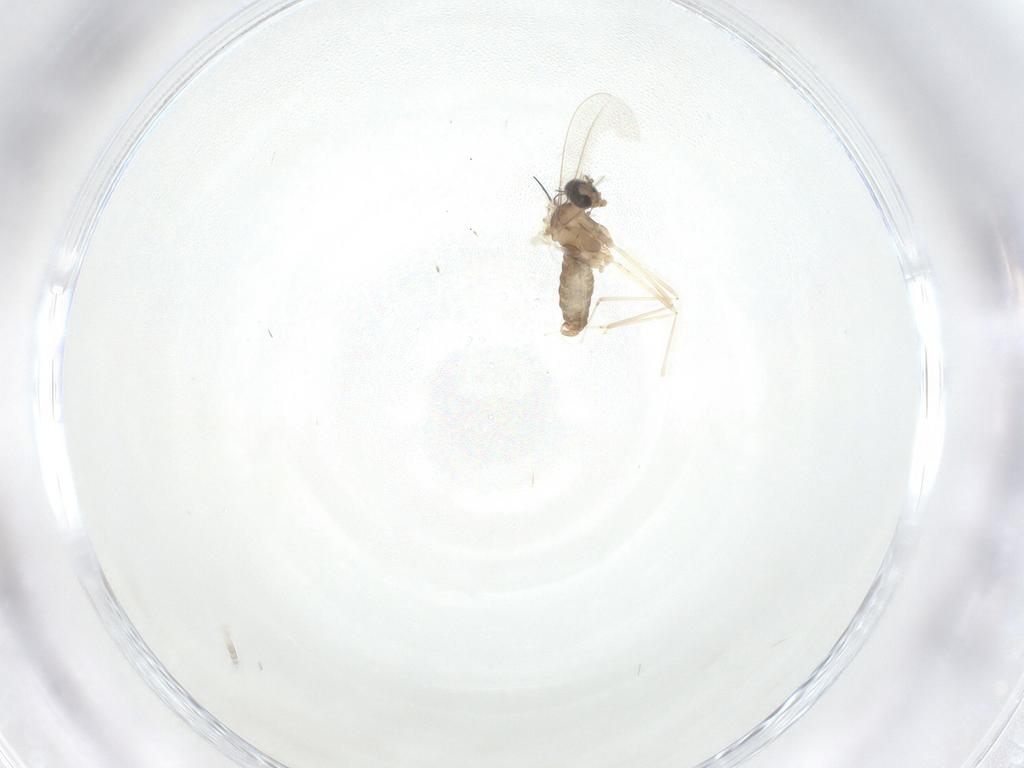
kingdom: Animalia
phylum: Arthropoda
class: Insecta
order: Diptera
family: Cecidomyiidae
